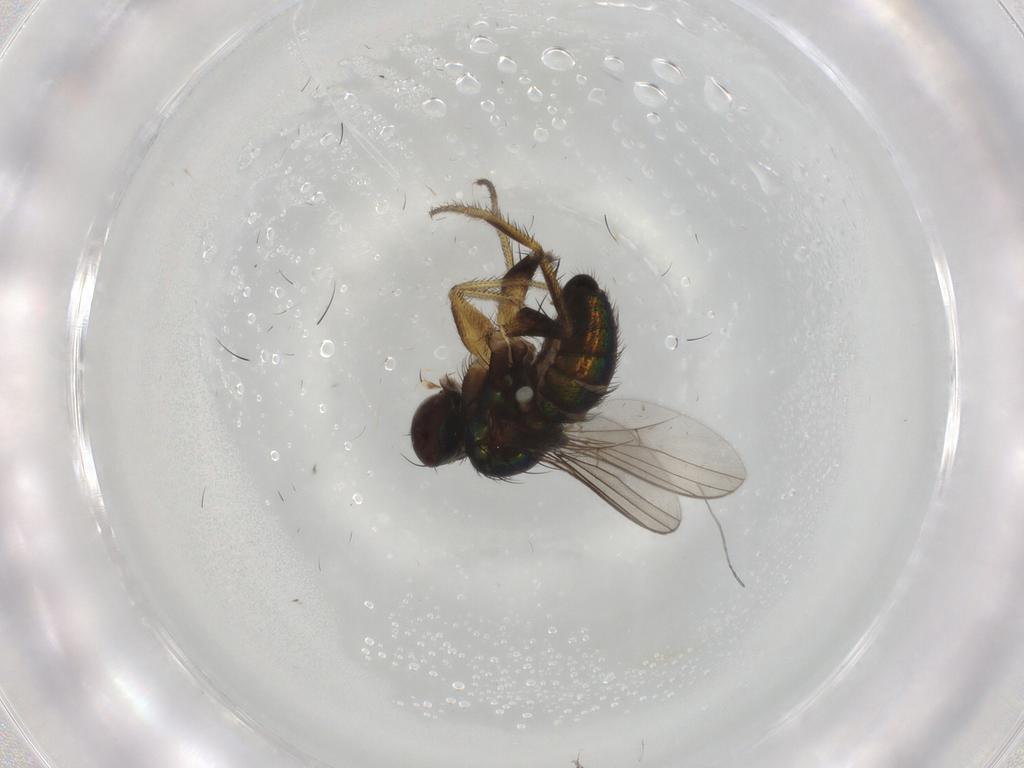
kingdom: Animalia
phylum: Arthropoda
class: Insecta
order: Diptera
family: Dolichopodidae
